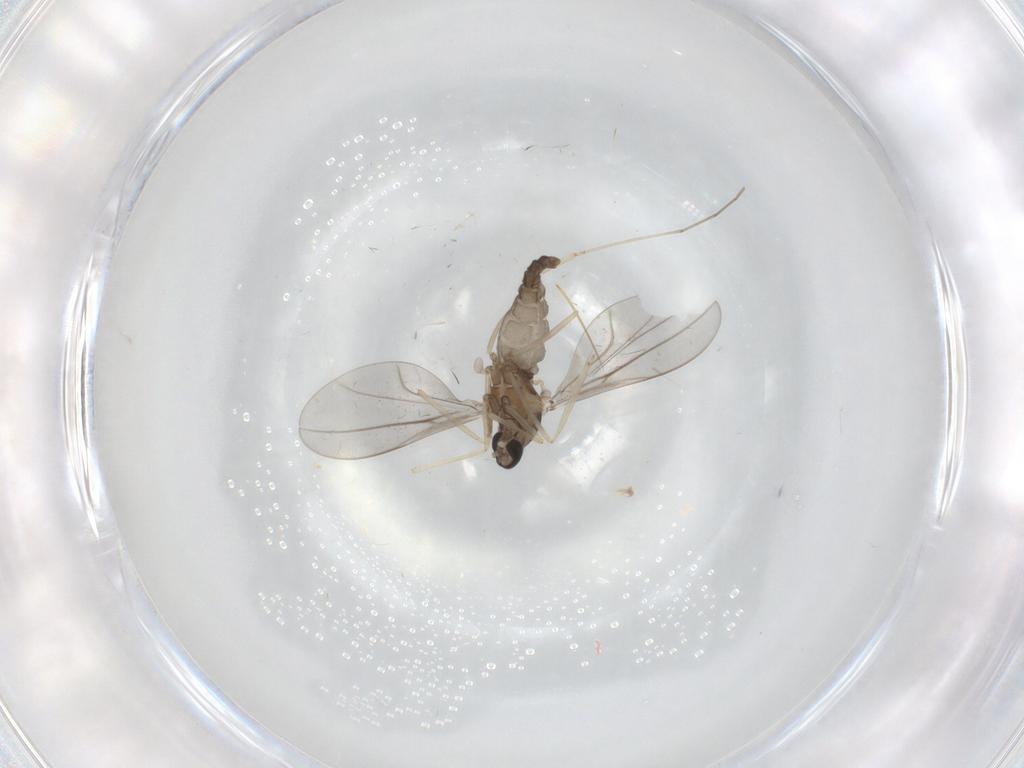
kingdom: Animalia
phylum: Arthropoda
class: Insecta
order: Diptera
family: Cecidomyiidae
